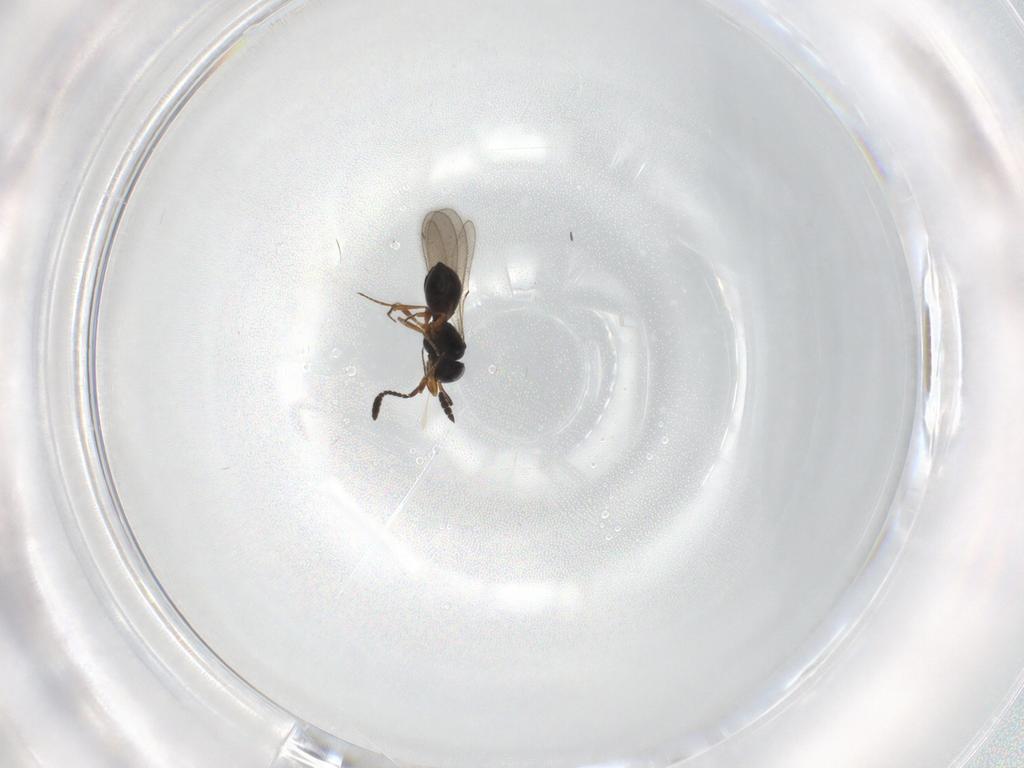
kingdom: Animalia
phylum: Arthropoda
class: Insecta
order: Hymenoptera
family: Scelionidae
